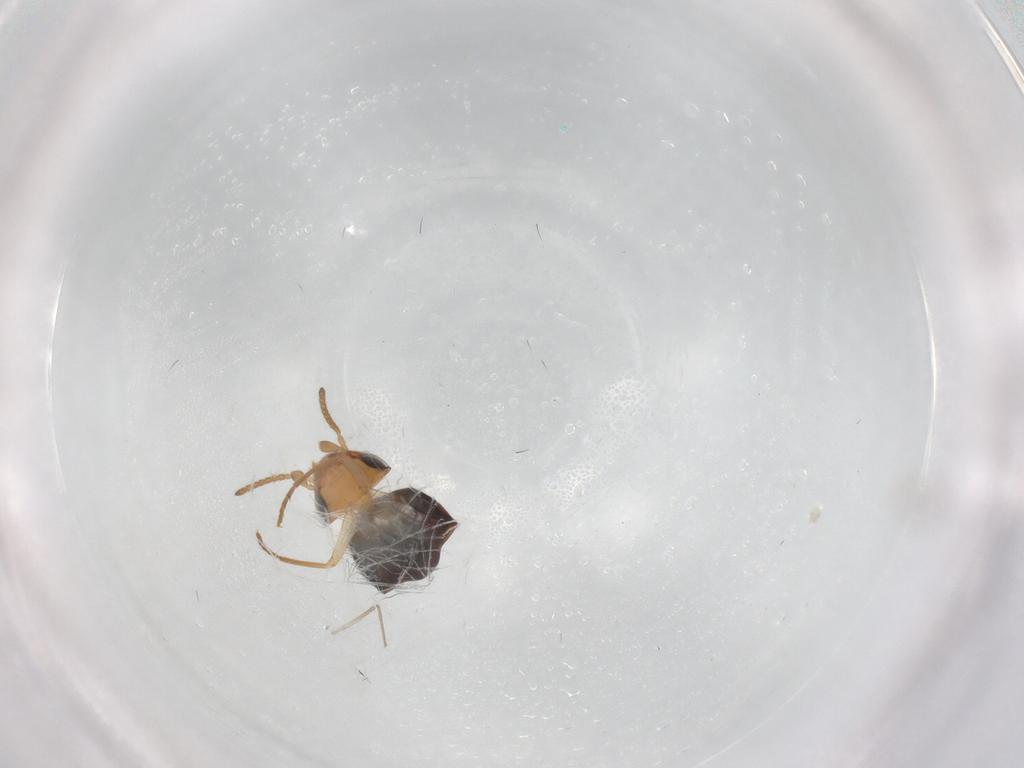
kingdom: Animalia
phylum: Arthropoda
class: Insecta
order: Coleoptera
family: Mordellidae
